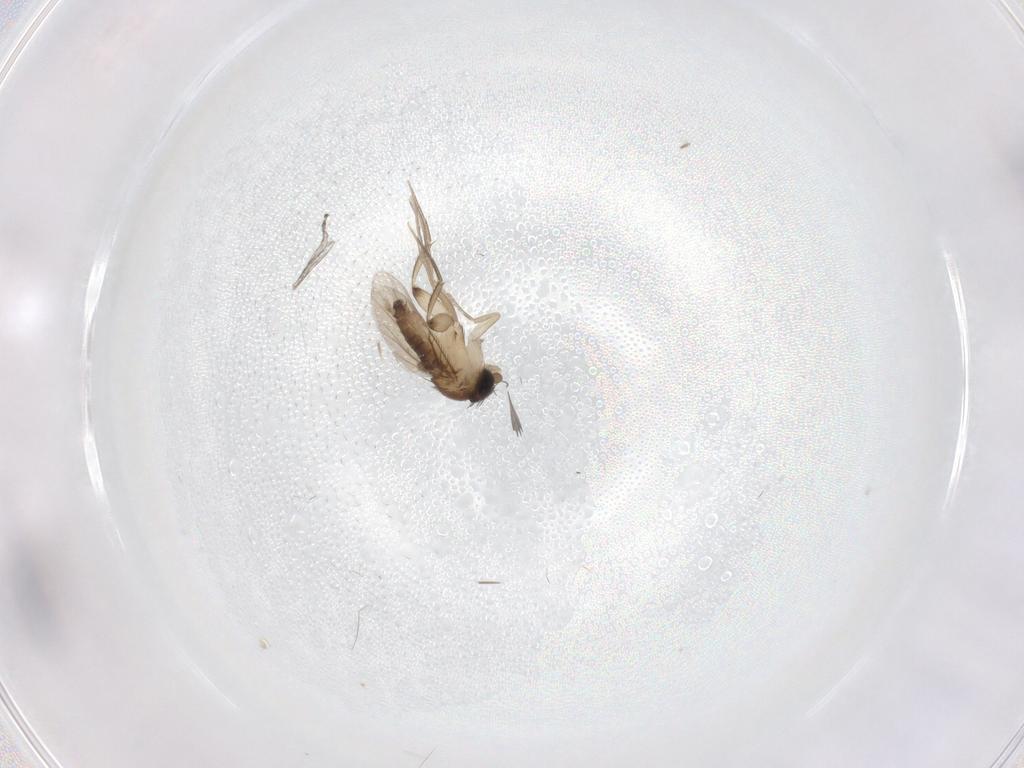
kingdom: Animalia
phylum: Arthropoda
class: Insecta
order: Diptera
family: Phoridae
